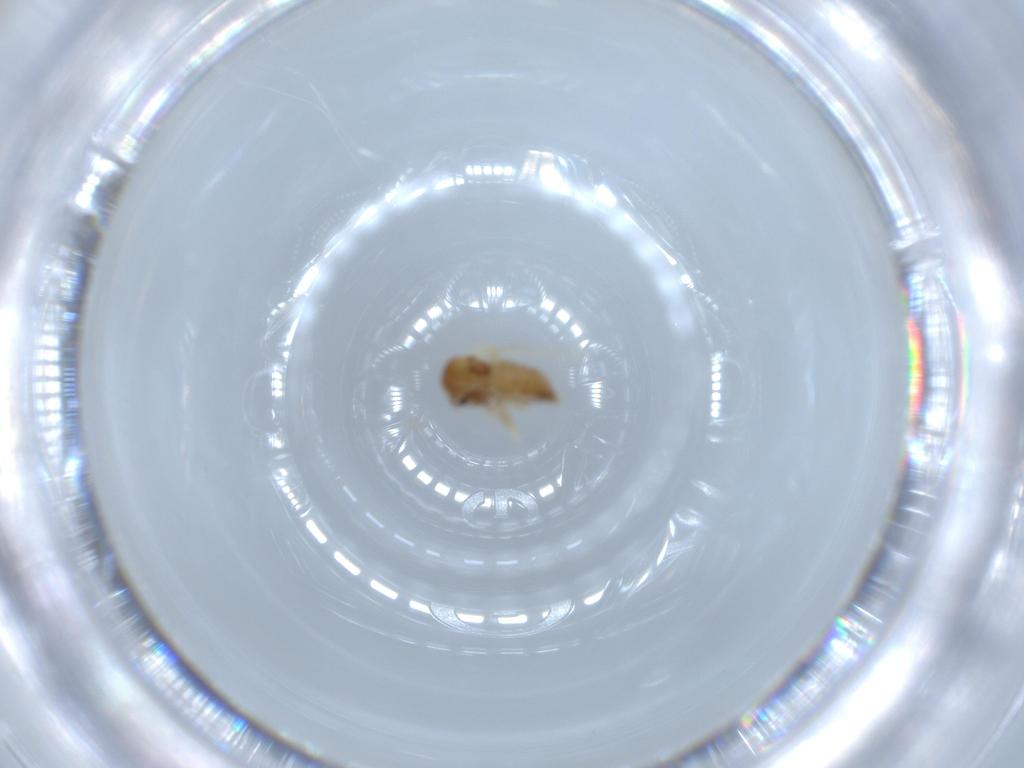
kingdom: Animalia
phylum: Arthropoda
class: Insecta
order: Diptera
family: Ceratopogonidae
